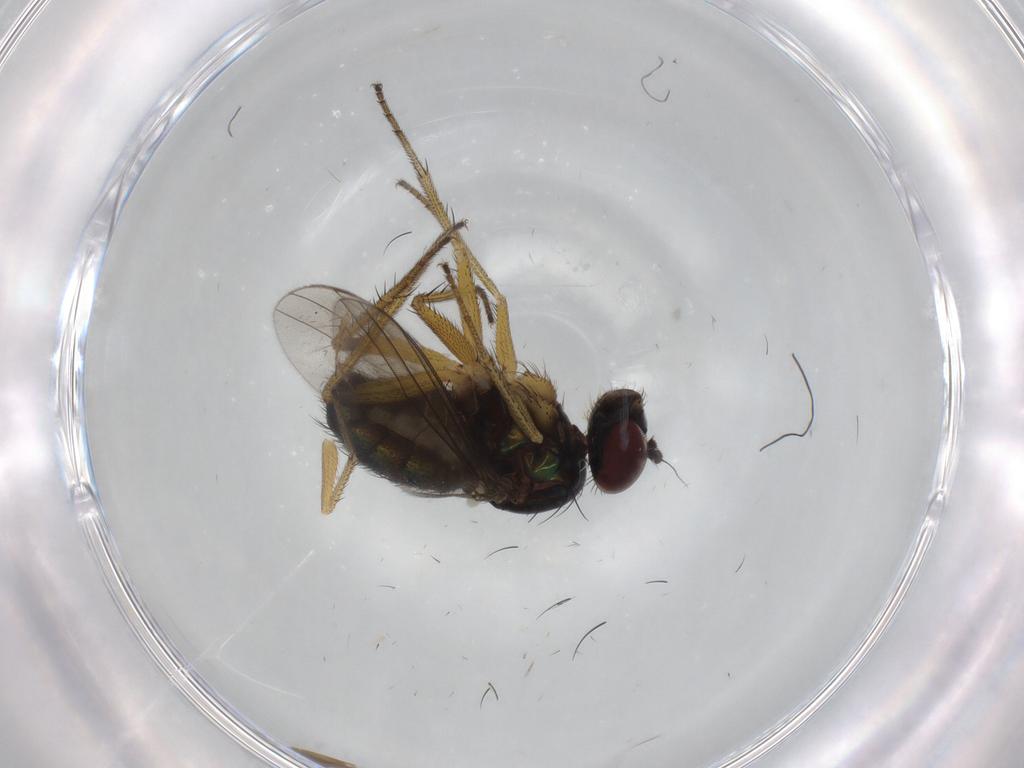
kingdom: Animalia
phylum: Arthropoda
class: Insecta
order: Diptera
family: Dolichopodidae
